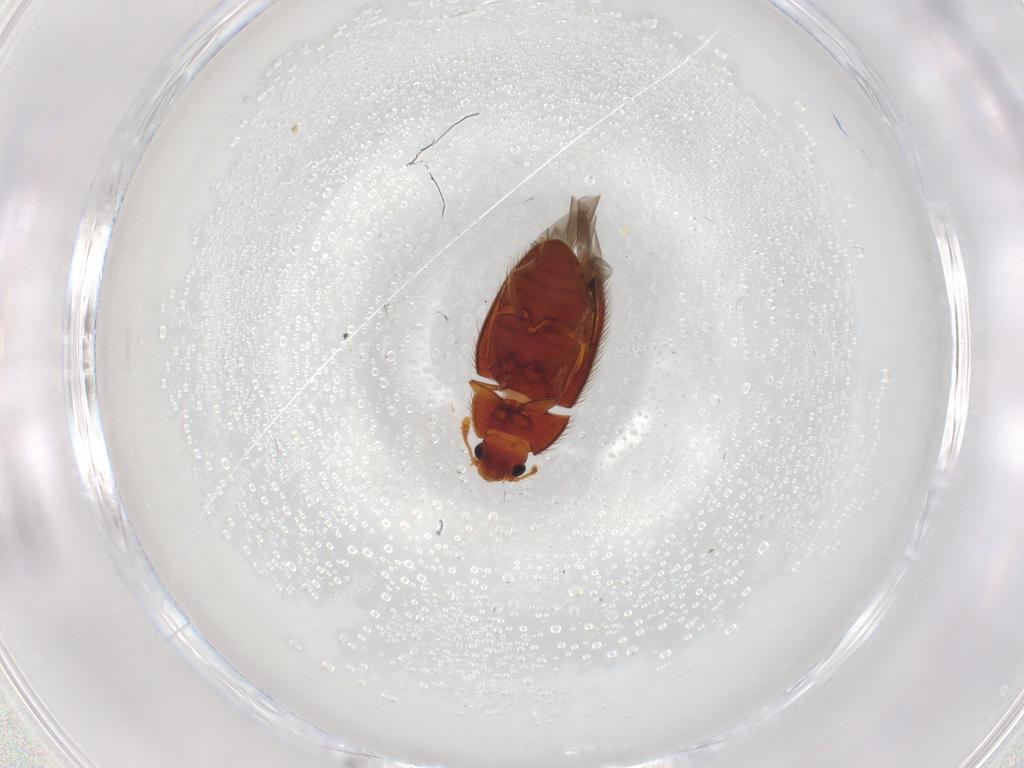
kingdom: Animalia
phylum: Arthropoda
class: Insecta
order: Coleoptera
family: Biphyllidae
